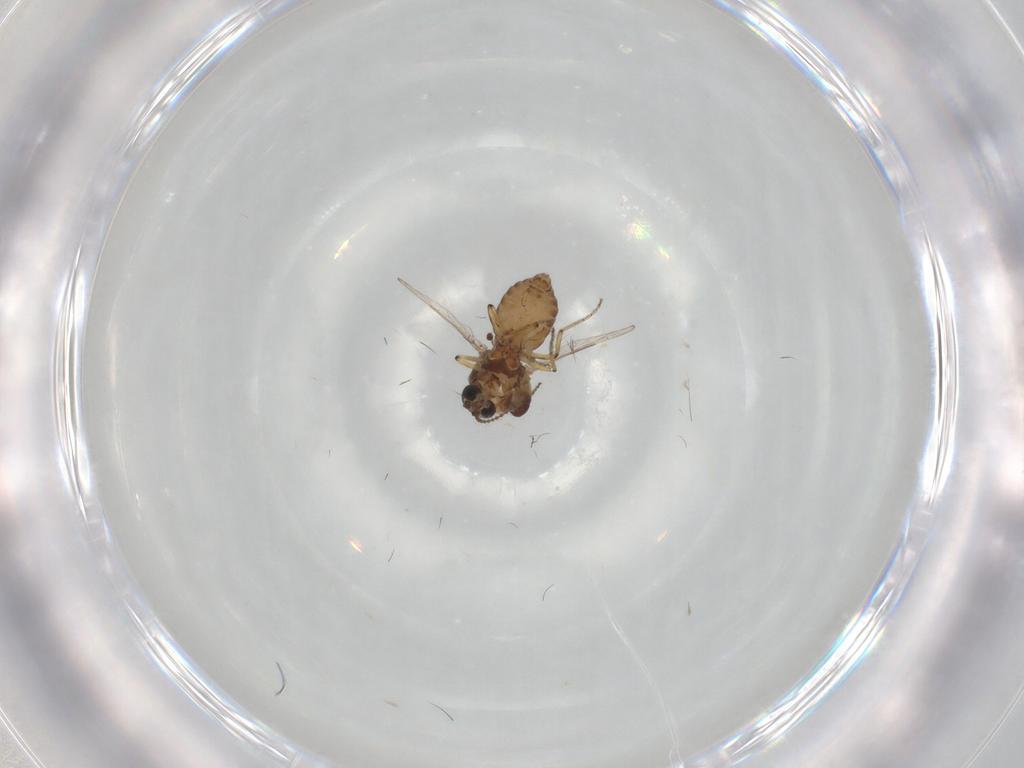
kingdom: Animalia
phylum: Arthropoda
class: Insecta
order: Diptera
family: Ceratopogonidae
